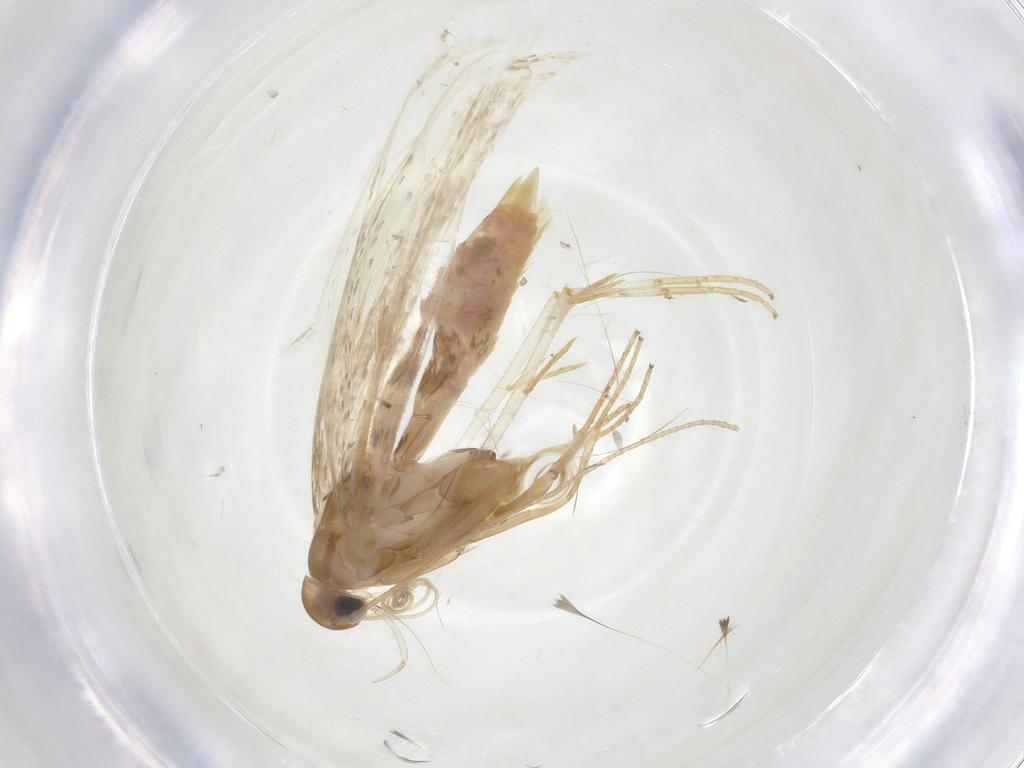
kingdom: Animalia
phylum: Arthropoda
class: Insecta
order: Lepidoptera
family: Crambidae
